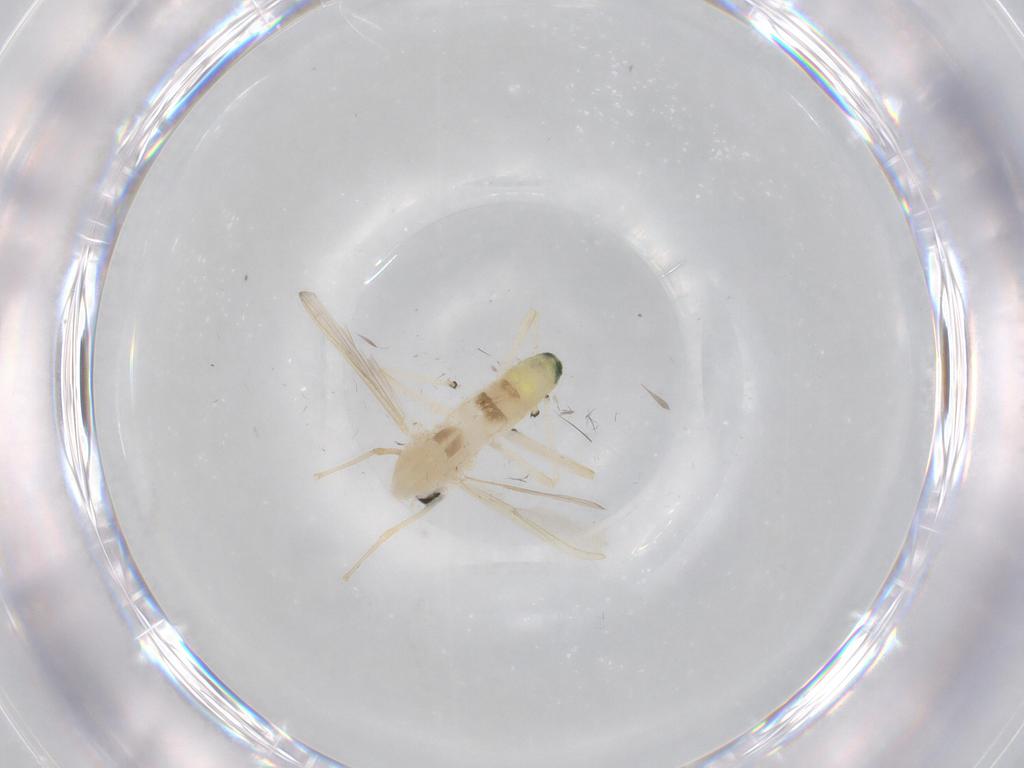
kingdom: Animalia
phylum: Arthropoda
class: Insecta
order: Diptera
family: Chironomidae
